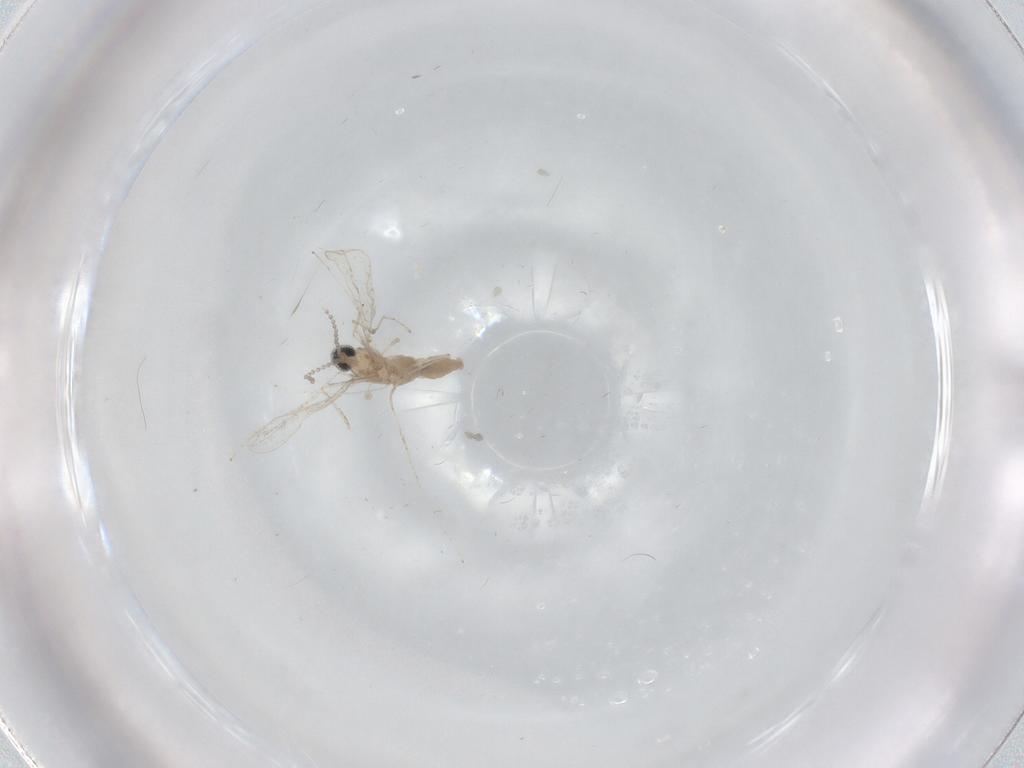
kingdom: Animalia
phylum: Arthropoda
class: Insecta
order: Diptera
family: Cecidomyiidae
